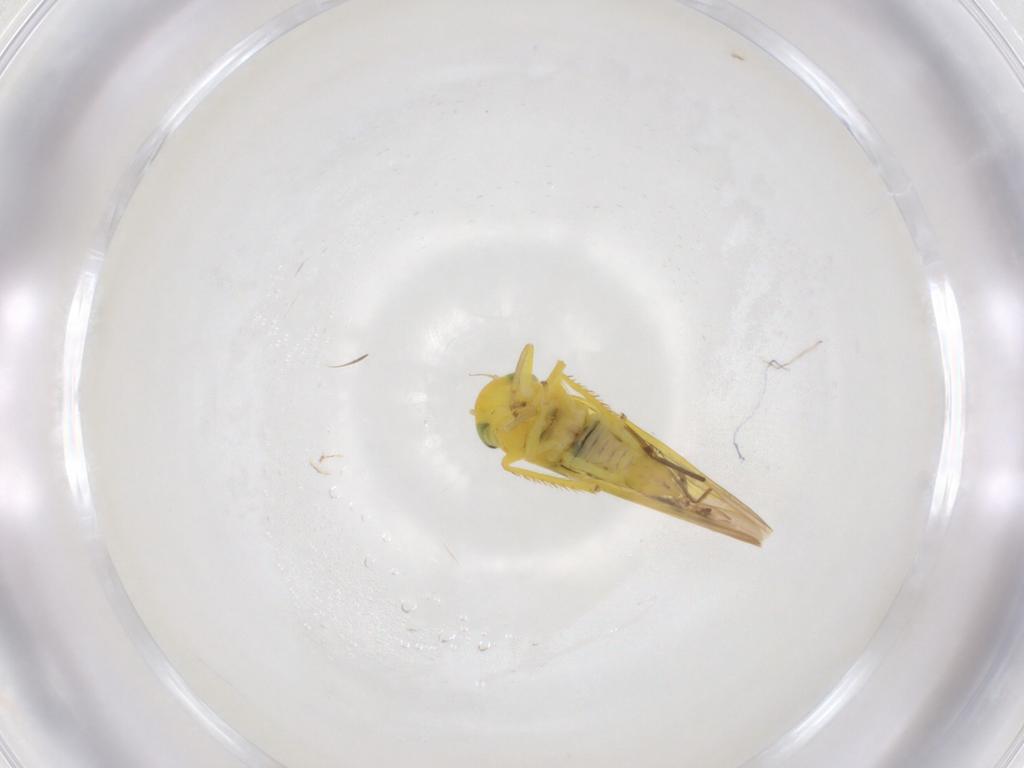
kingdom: Animalia
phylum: Arthropoda
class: Insecta
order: Hemiptera
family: Cicadellidae
